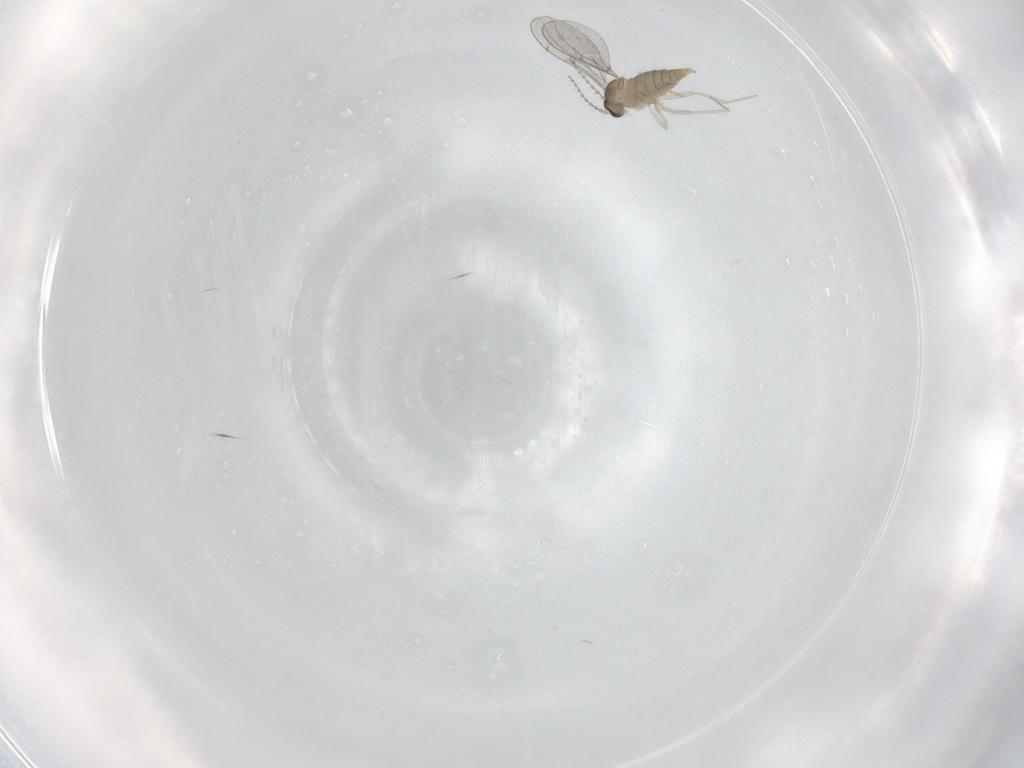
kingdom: Animalia
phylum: Arthropoda
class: Insecta
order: Diptera
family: Cecidomyiidae
